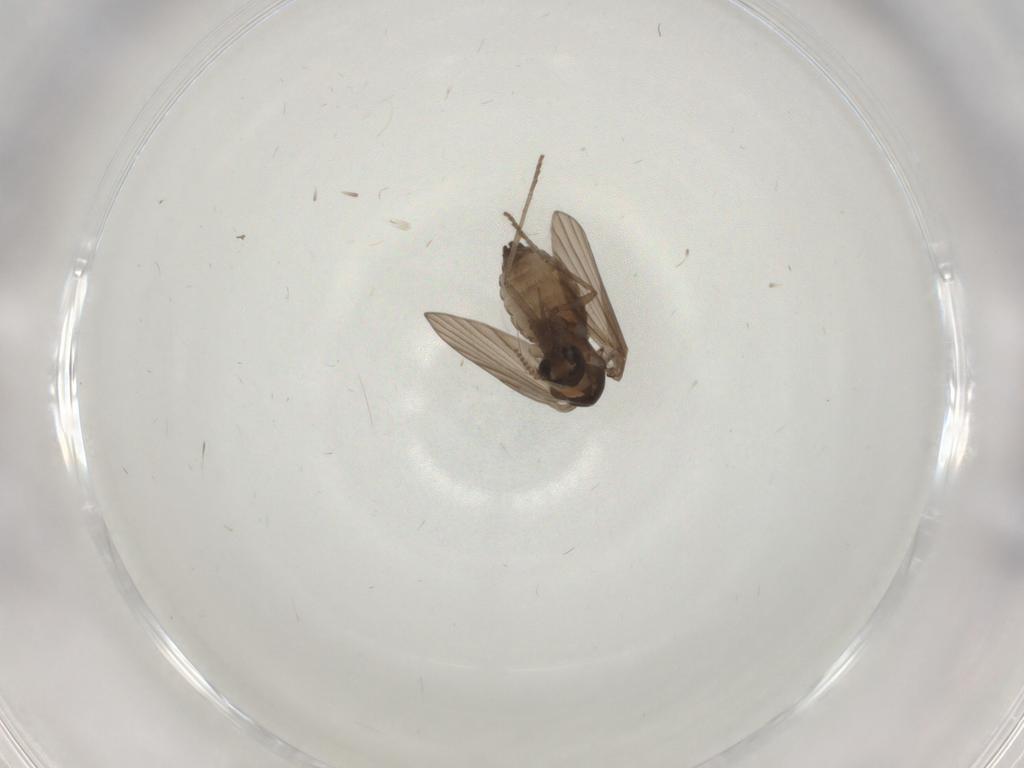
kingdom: Animalia
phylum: Arthropoda
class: Insecta
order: Diptera
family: Psychodidae
